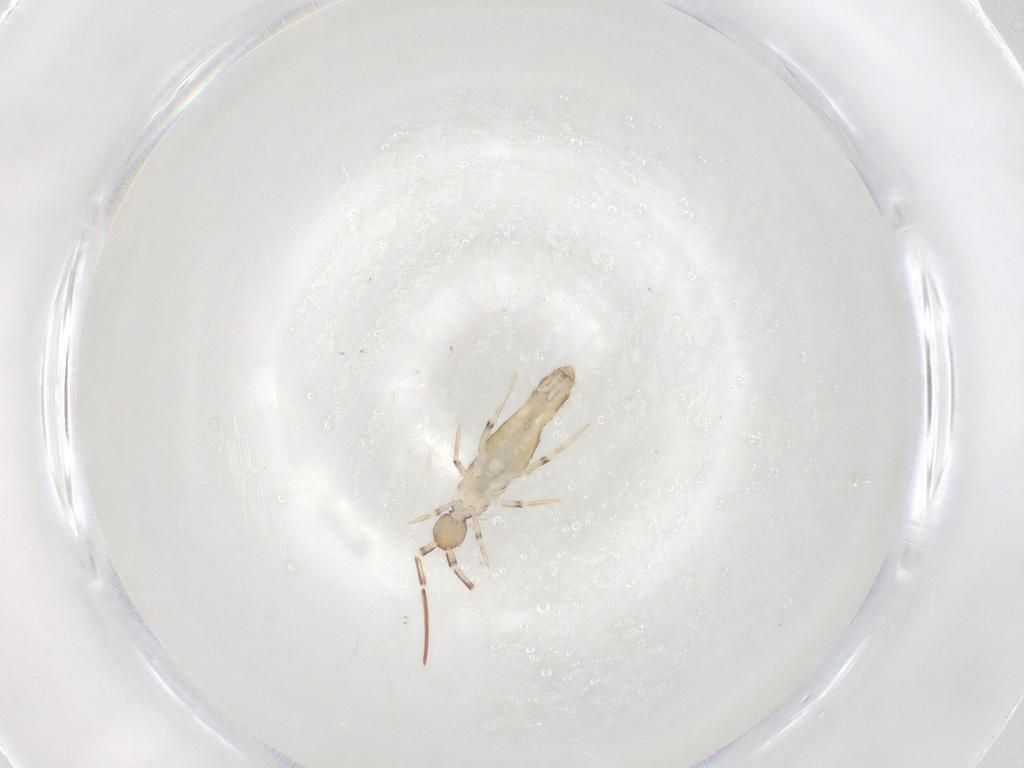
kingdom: Animalia
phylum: Arthropoda
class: Collembola
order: Entomobryomorpha
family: Entomobryidae
